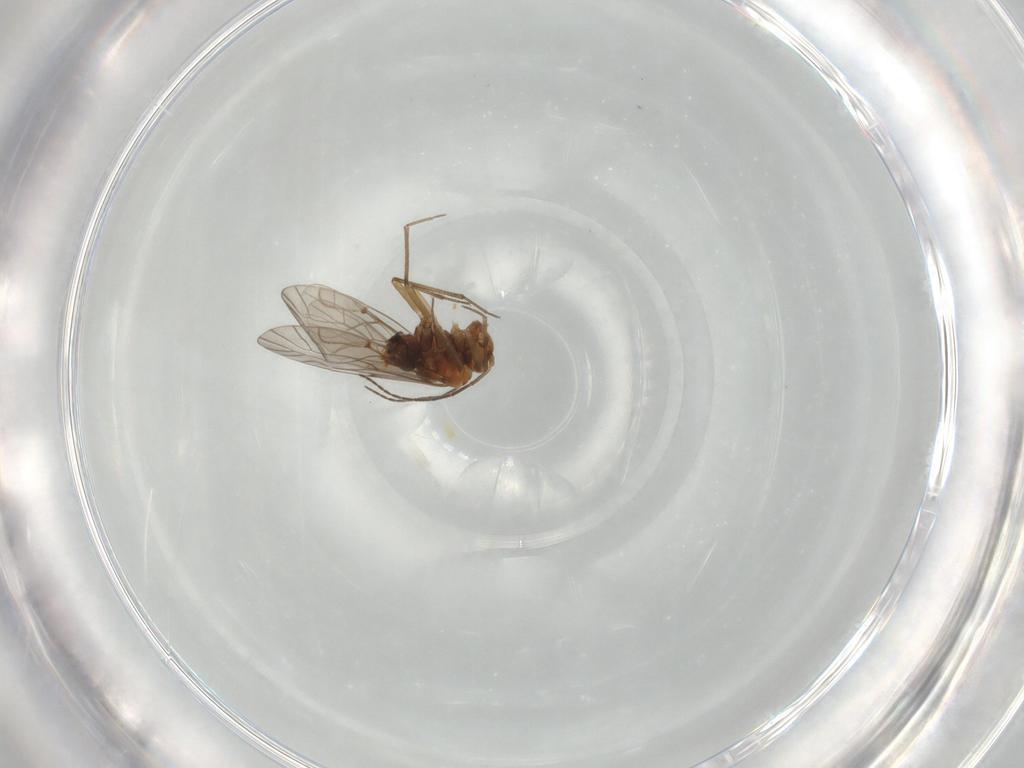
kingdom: Animalia
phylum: Arthropoda
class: Insecta
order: Psocodea
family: Lachesillidae
